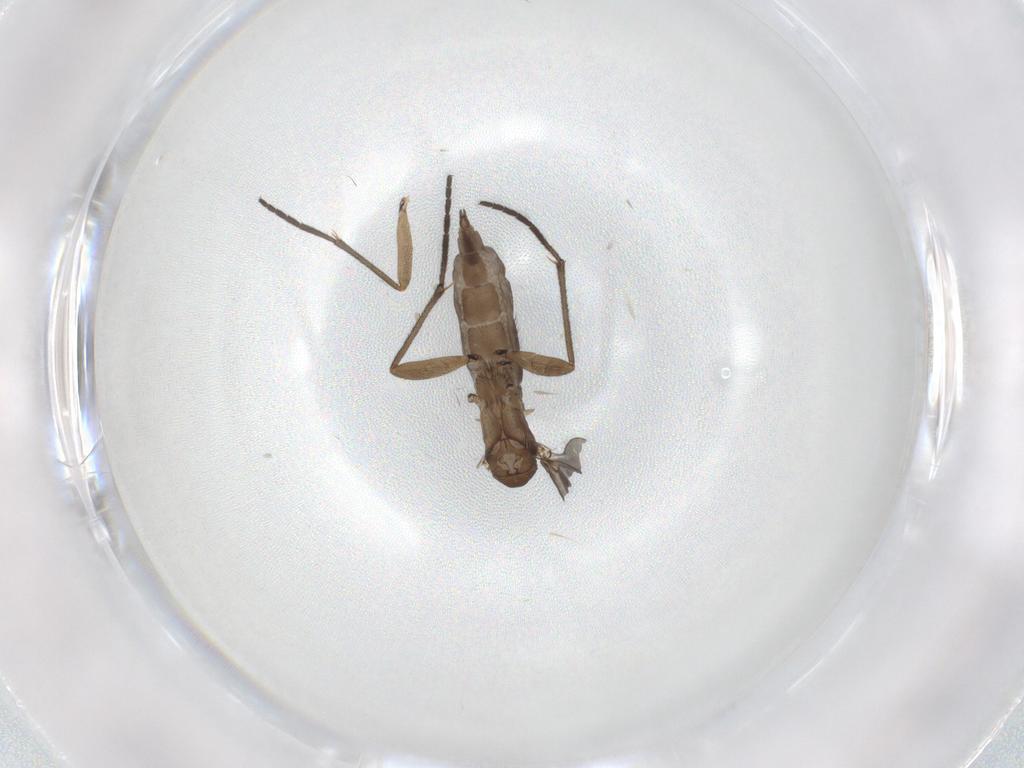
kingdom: Animalia
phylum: Arthropoda
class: Insecta
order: Diptera
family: Sciaridae
